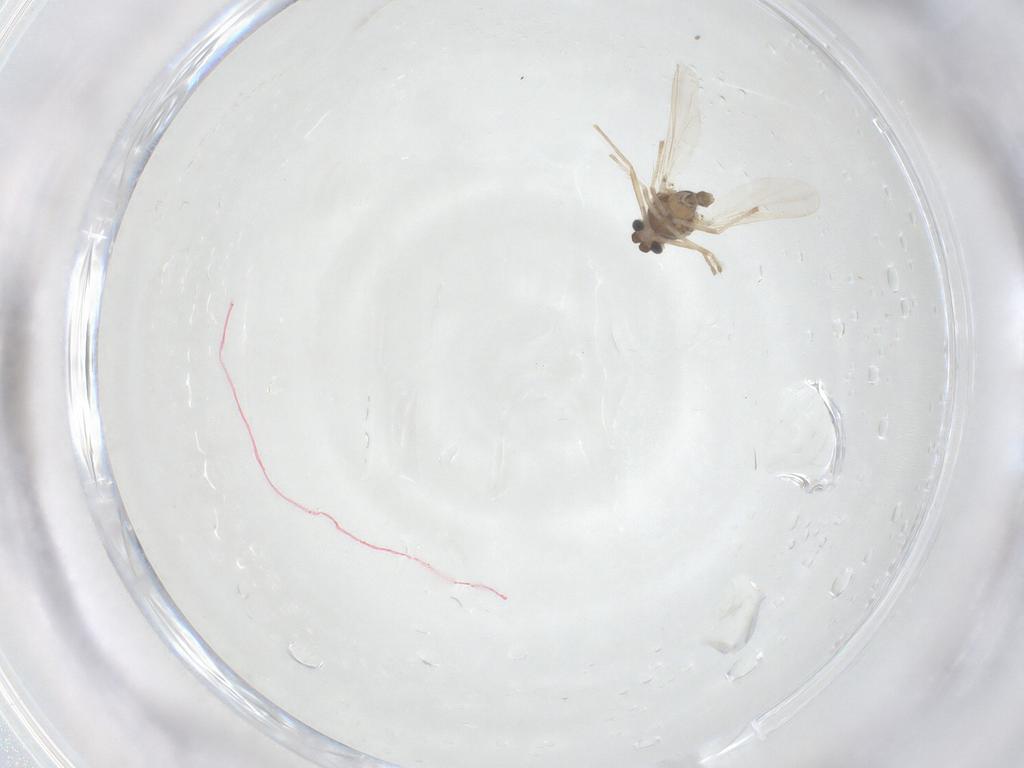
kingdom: Animalia
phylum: Arthropoda
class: Insecta
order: Diptera
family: Chironomidae
